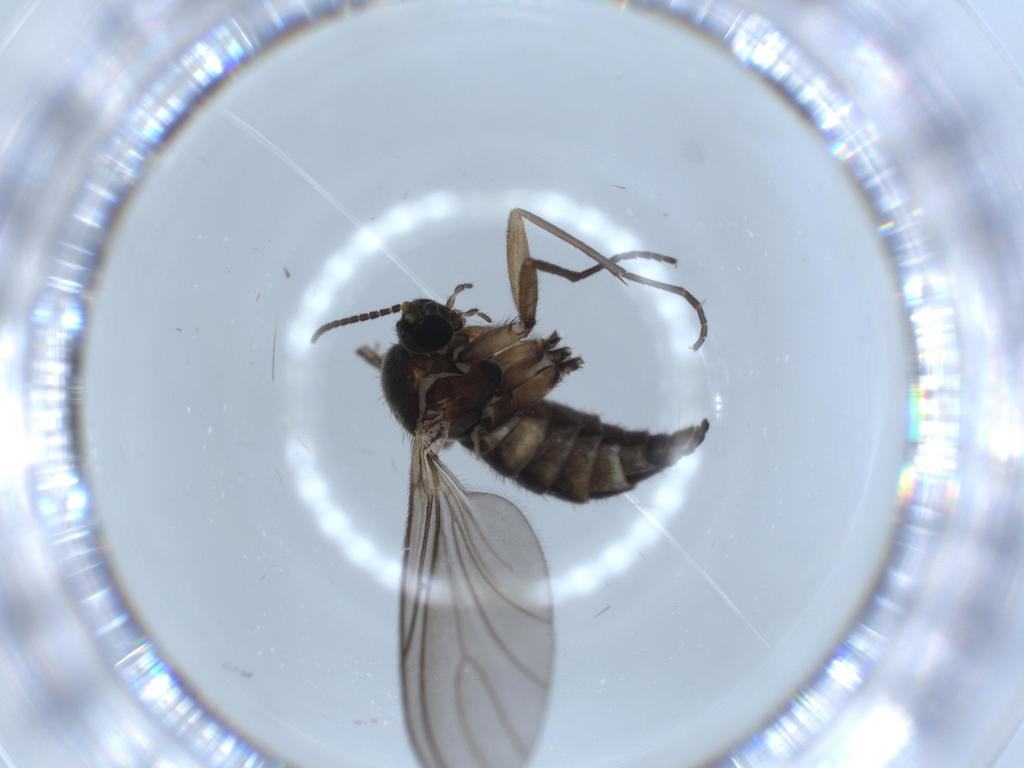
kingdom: Animalia
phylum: Arthropoda
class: Insecta
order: Diptera
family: Sciaridae
